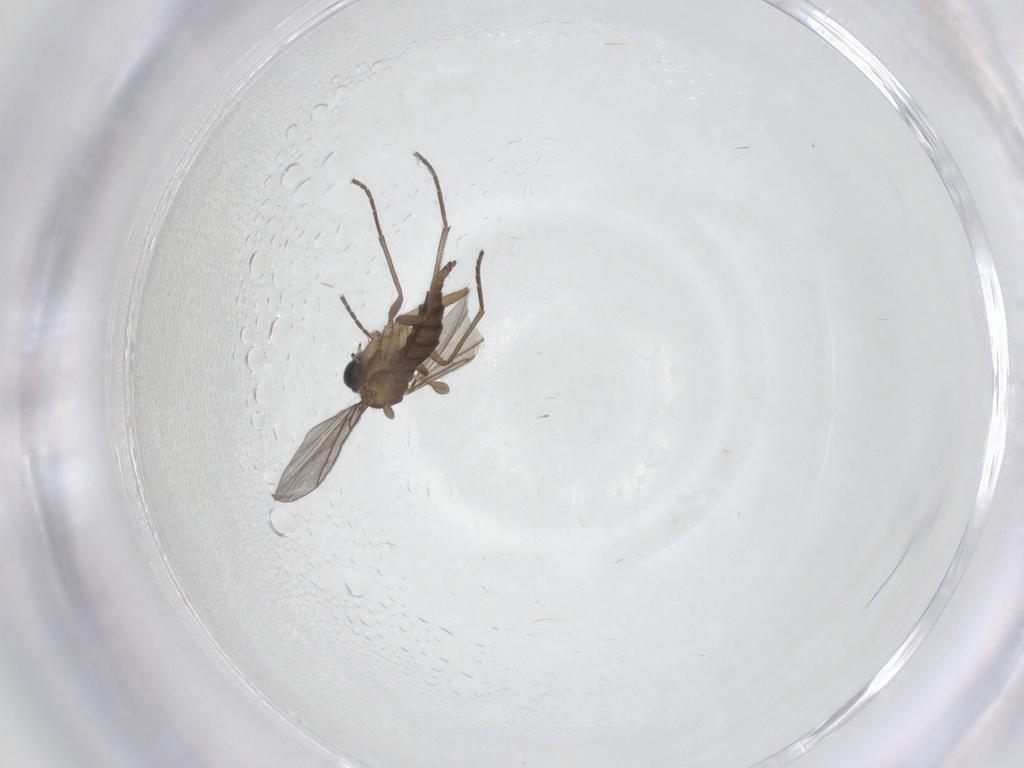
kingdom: Animalia
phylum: Arthropoda
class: Insecta
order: Diptera
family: Sciaridae
